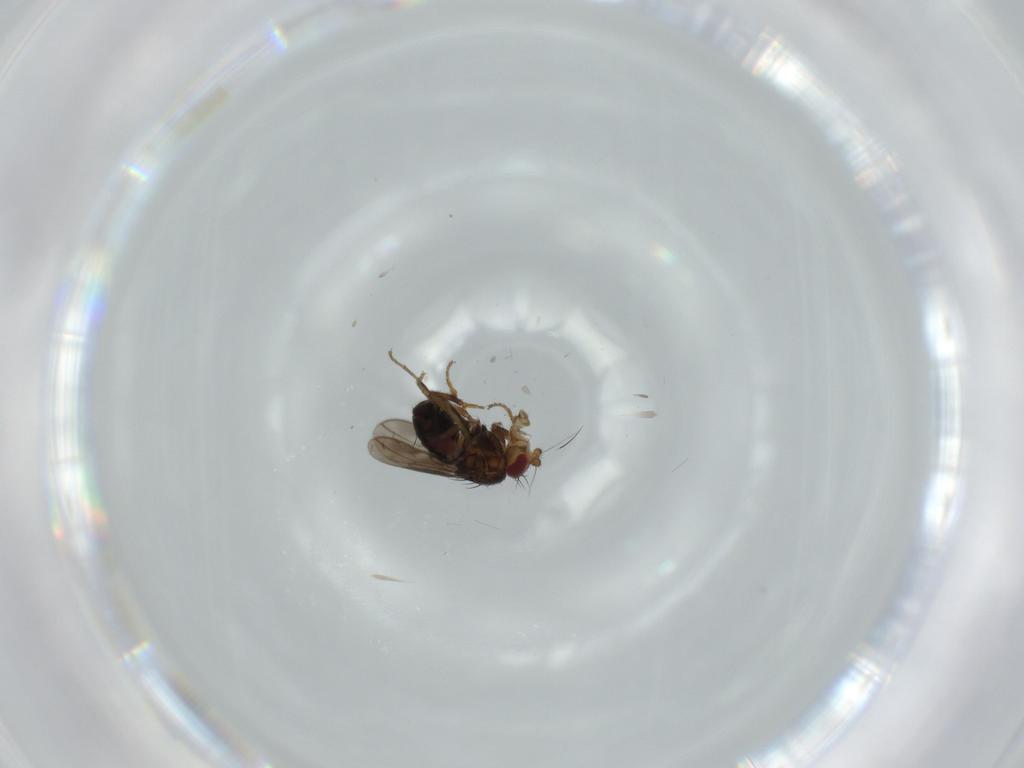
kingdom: Animalia
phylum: Arthropoda
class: Insecta
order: Diptera
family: Sphaeroceridae
